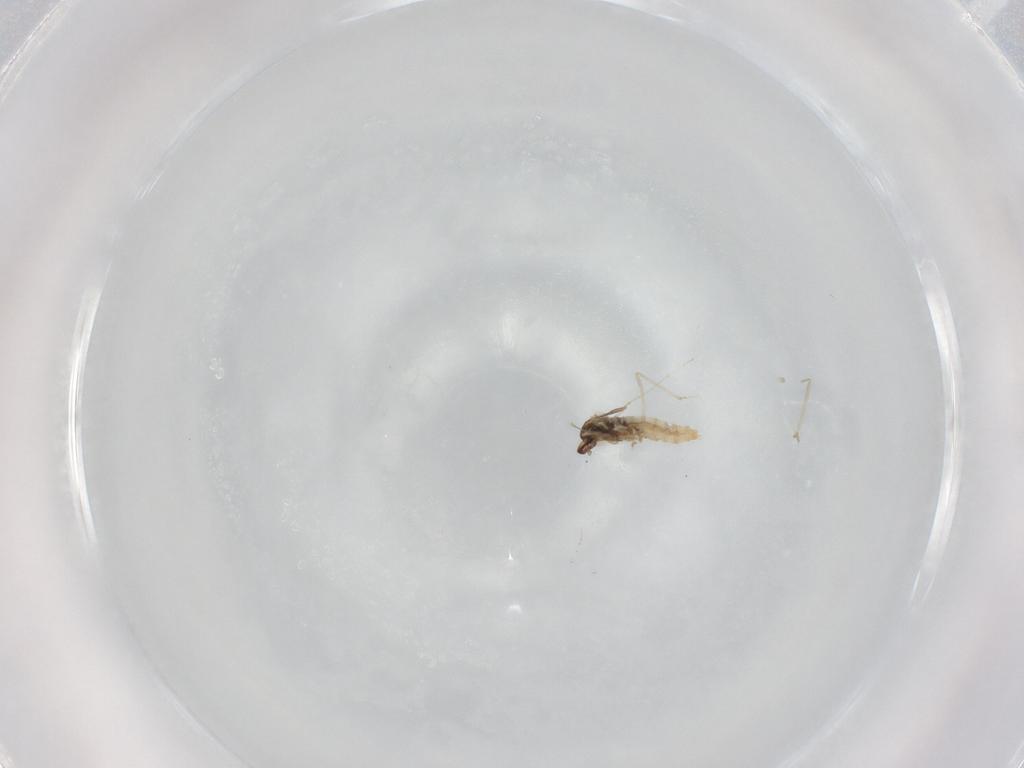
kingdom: Animalia
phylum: Arthropoda
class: Insecta
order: Diptera
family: Cecidomyiidae
